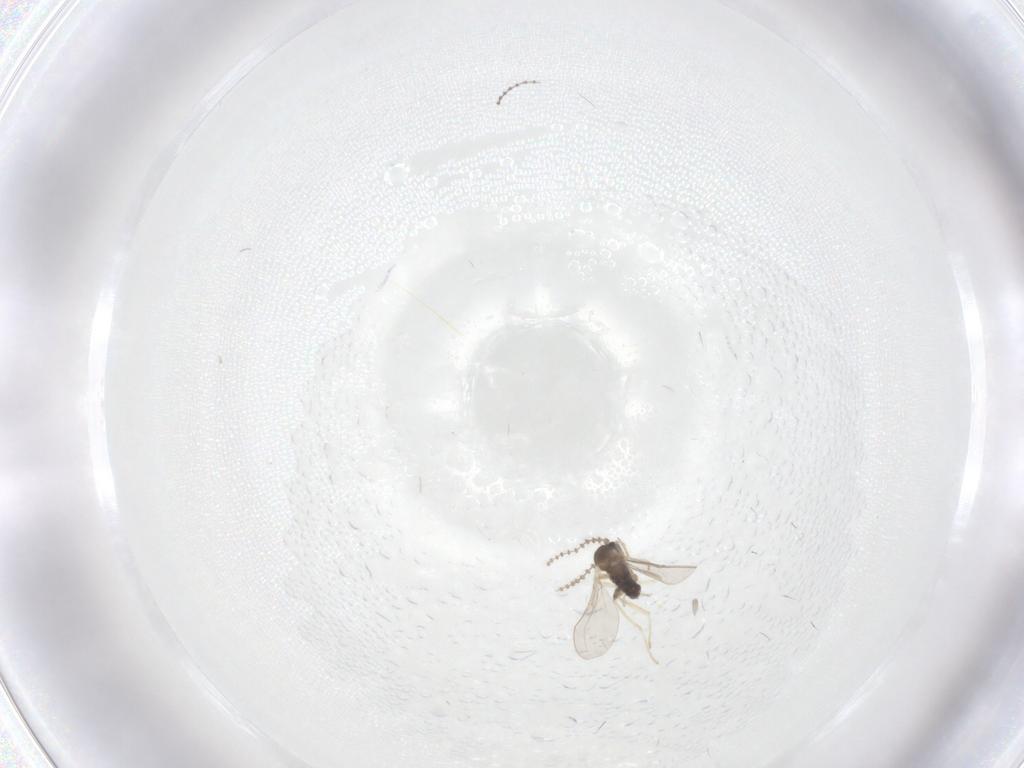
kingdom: Animalia
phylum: Arthropoda
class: Insecta
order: Diptera
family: Cecidomyiidae
